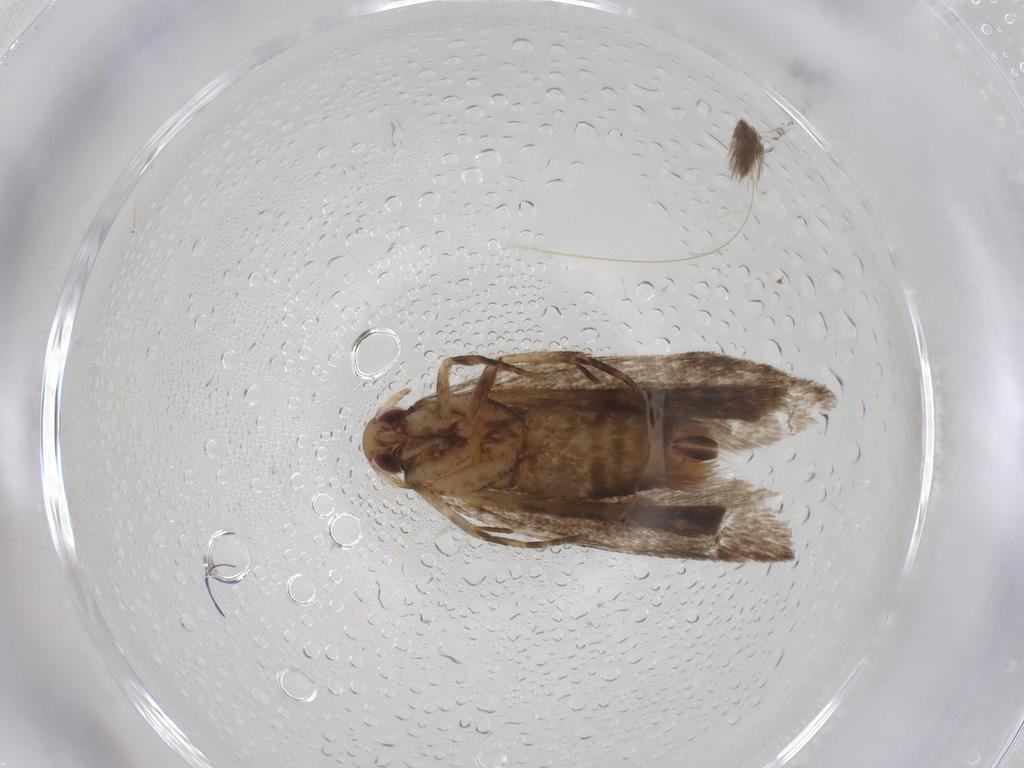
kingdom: Animalia
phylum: Arthropoda
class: Insecta
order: Lepidoptera
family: Gelechiidae
